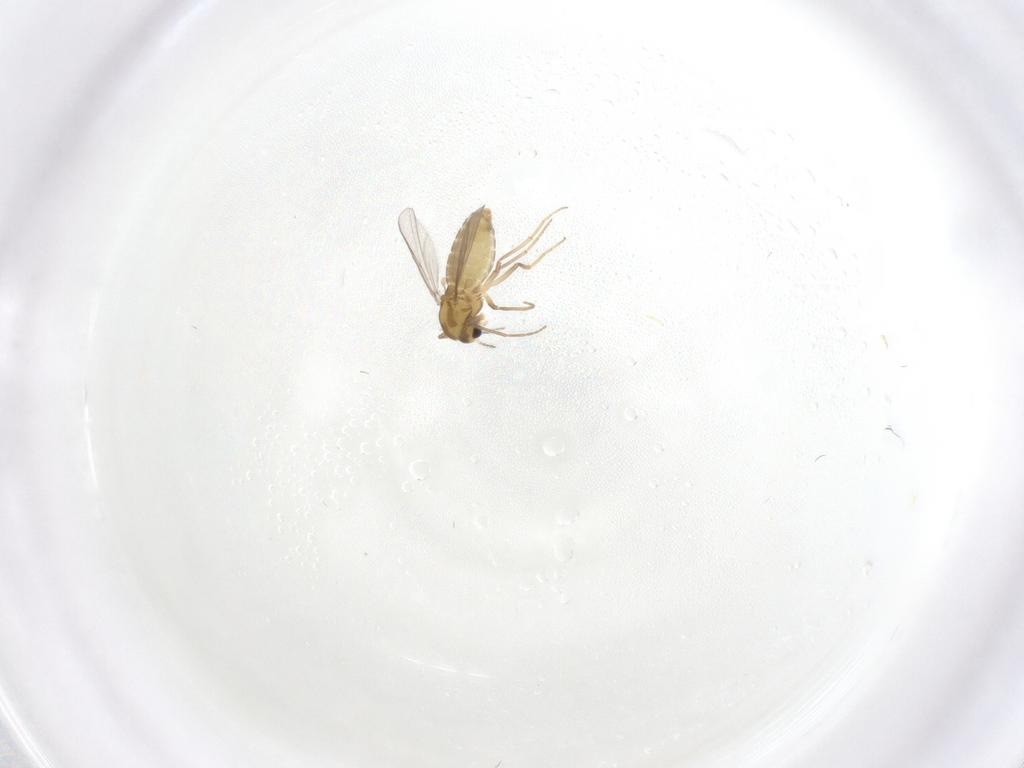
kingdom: Animalia
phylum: Arthropoda
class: Insecta
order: Diptera
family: Chironomidae
